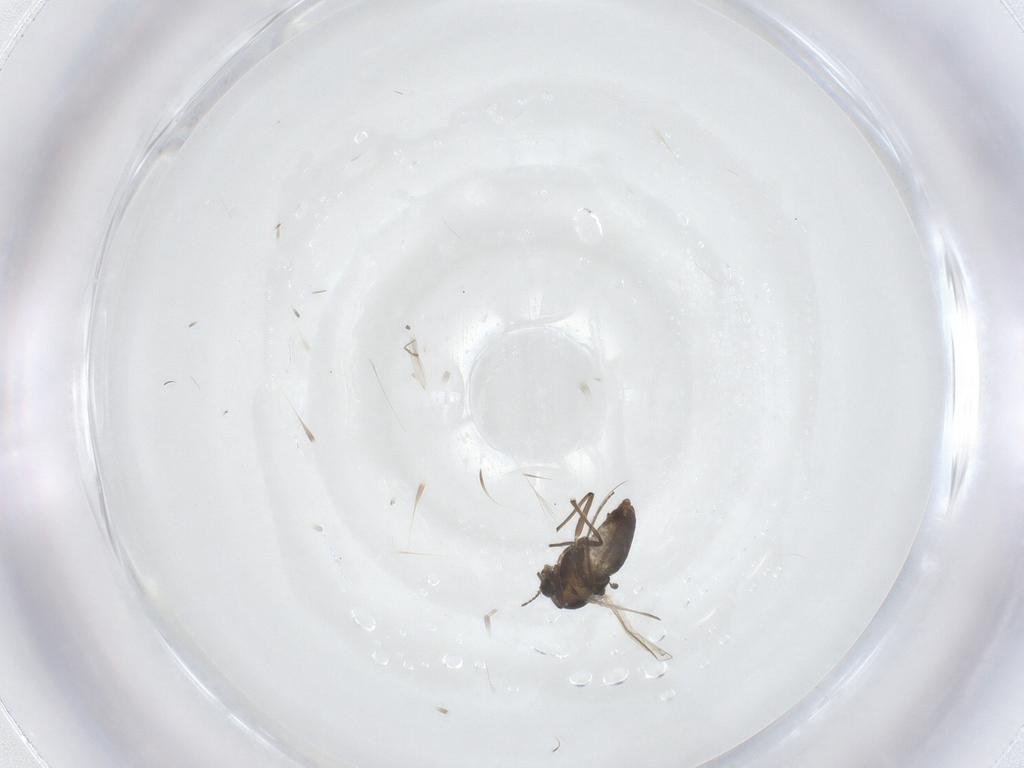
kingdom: Animalia
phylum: Arthropoda
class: Insecta
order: Diptera
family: Chironomidae
